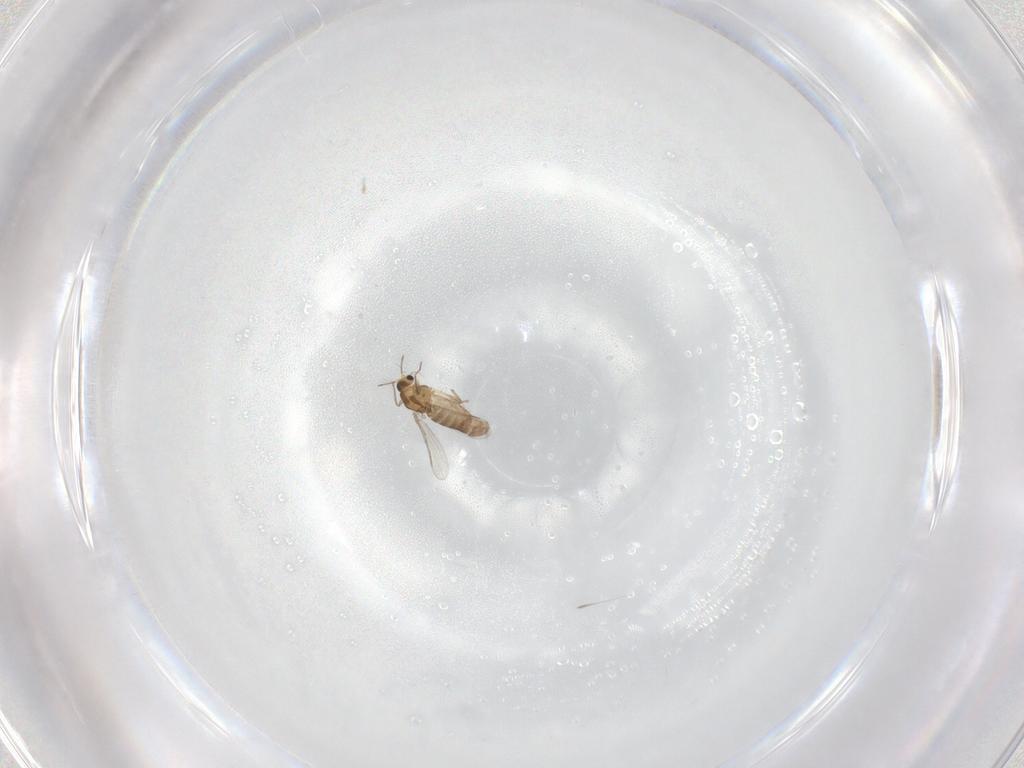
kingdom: Animalia
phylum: Arthropoda
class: Insecta
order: Diptera
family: Chironomidae
